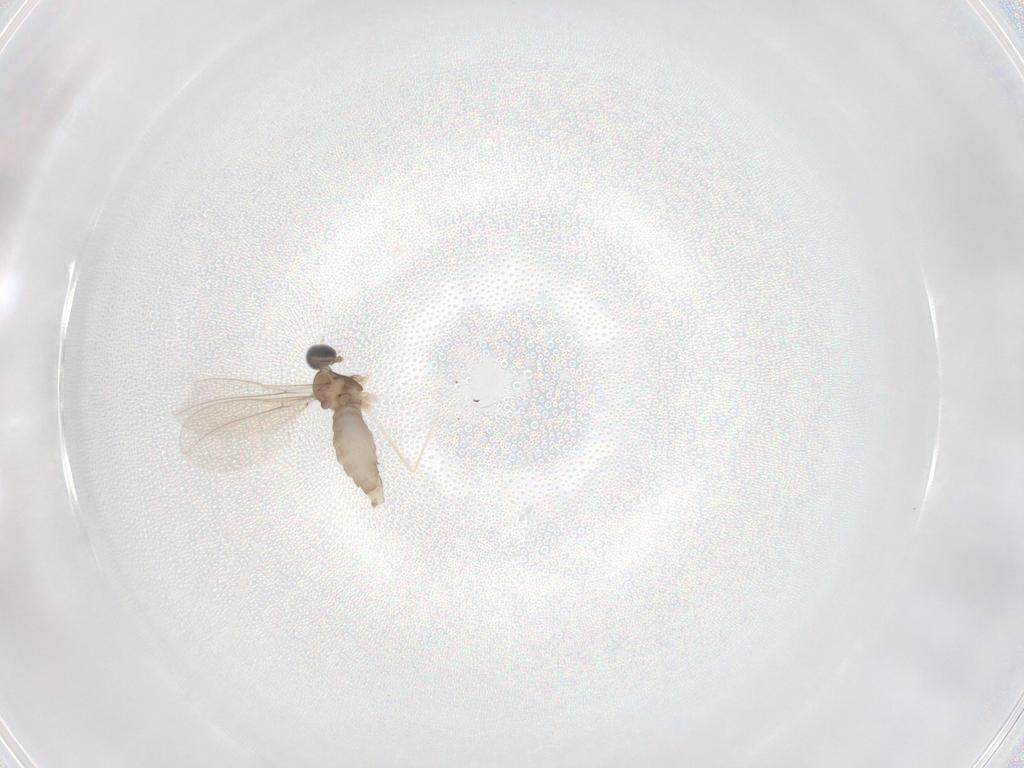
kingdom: Animalia
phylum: Arthropoda
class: Insecta
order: Diptera
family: Cecidomyiidae
